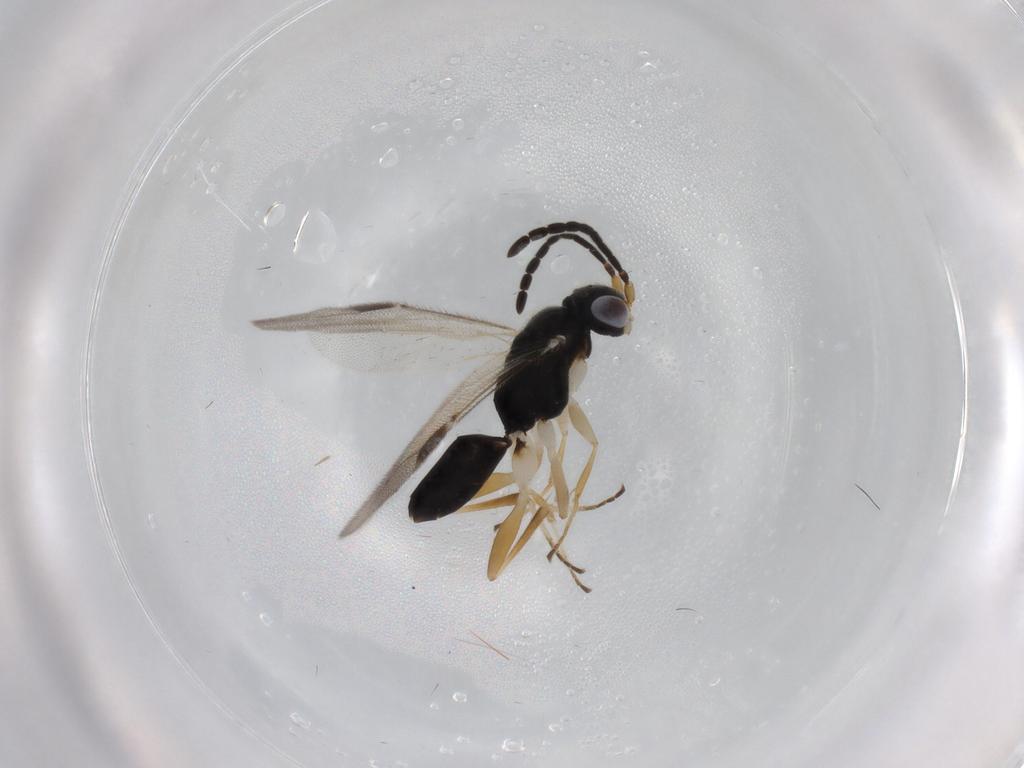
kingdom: Animalia
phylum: Arthropoda
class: Insecta
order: Hymenoptera
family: Dryinidae
